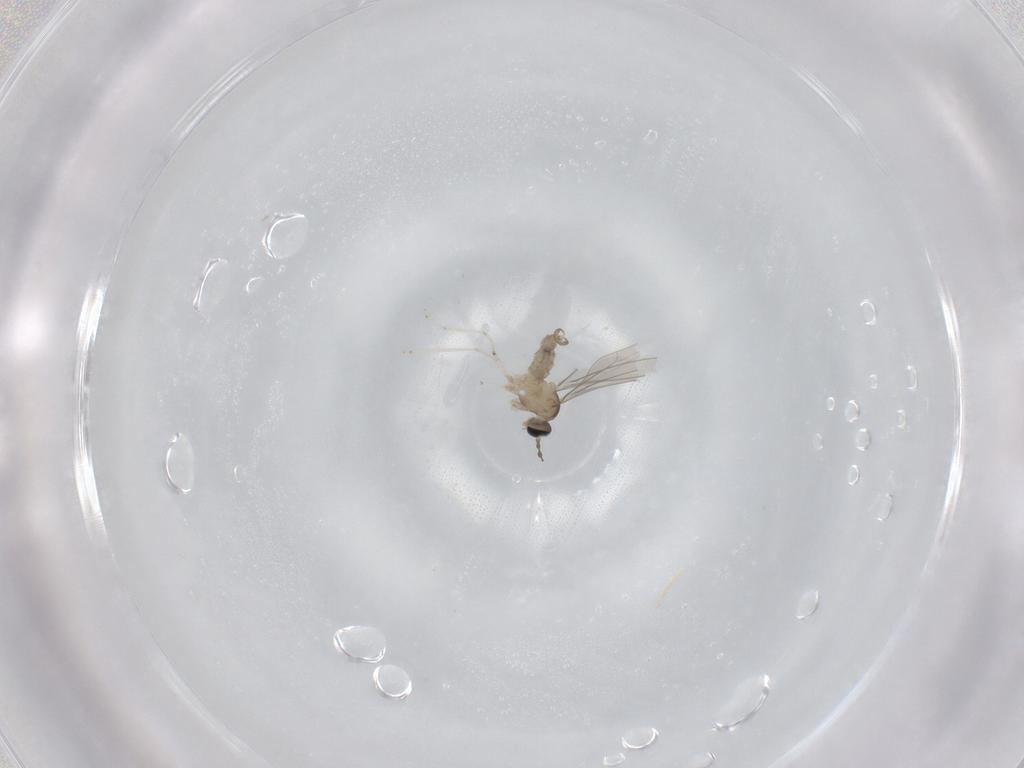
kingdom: Animalia
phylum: Arthropoda
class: Insecta
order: Diptera
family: Cecidomyiidae
